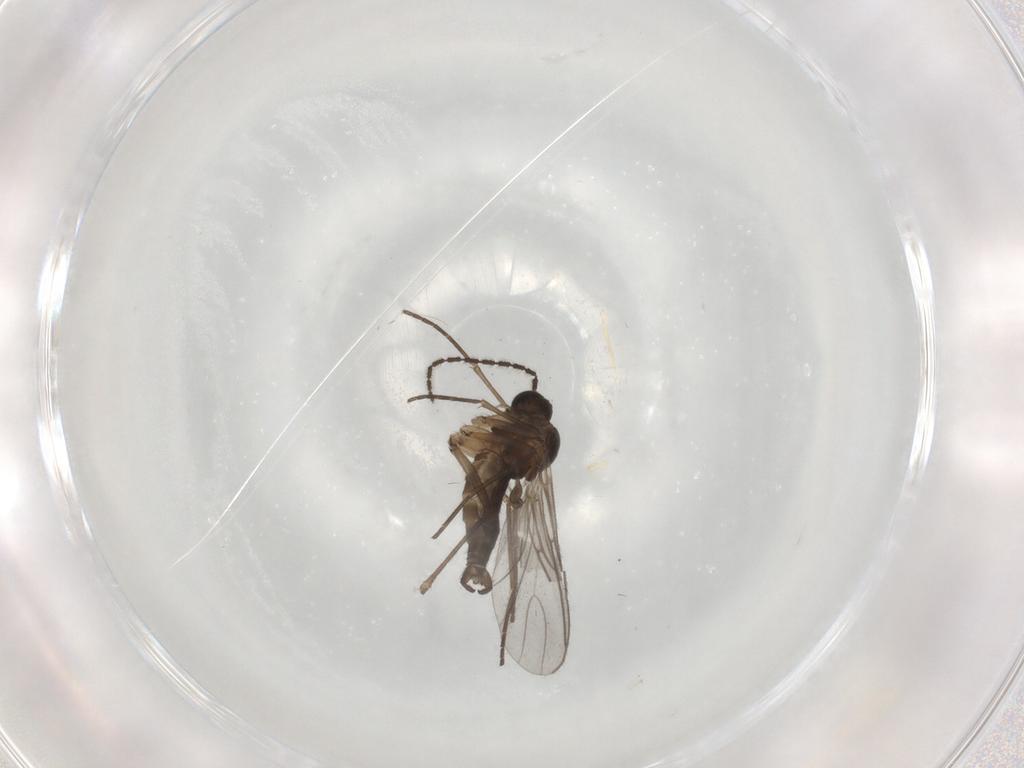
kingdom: Animalia
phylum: Arthropoda
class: Insecta
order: Diptera
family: Sciaridae
